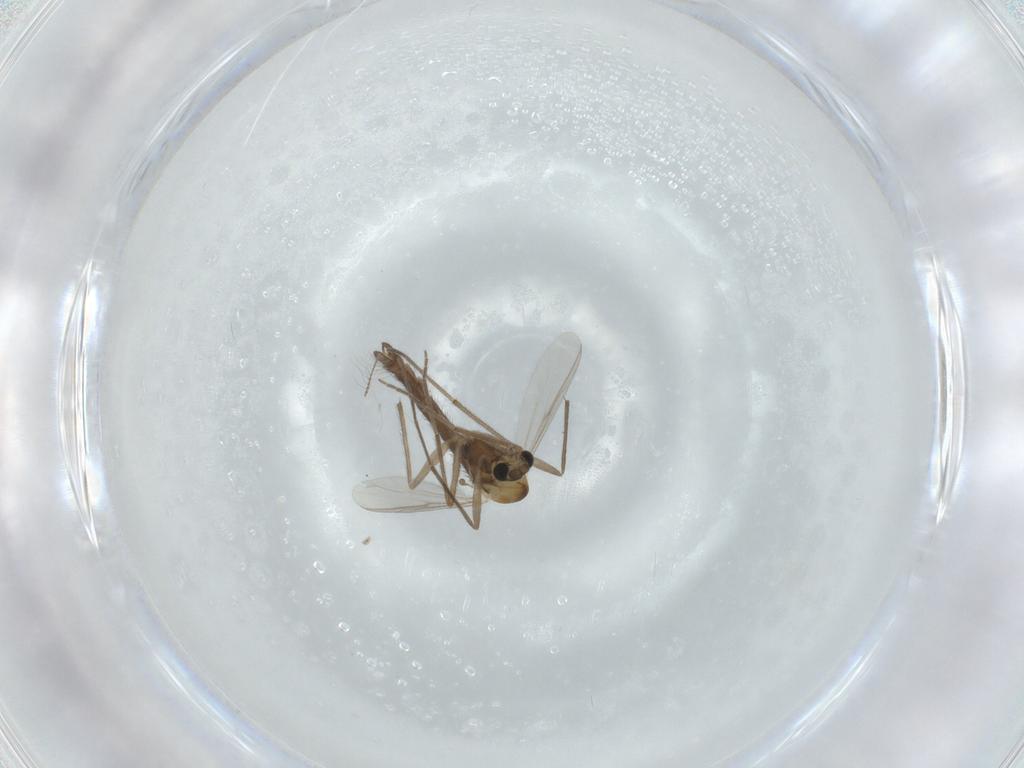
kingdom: Animalia
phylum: Arthropoda
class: Insecta
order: Diptera
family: Chironomidae
